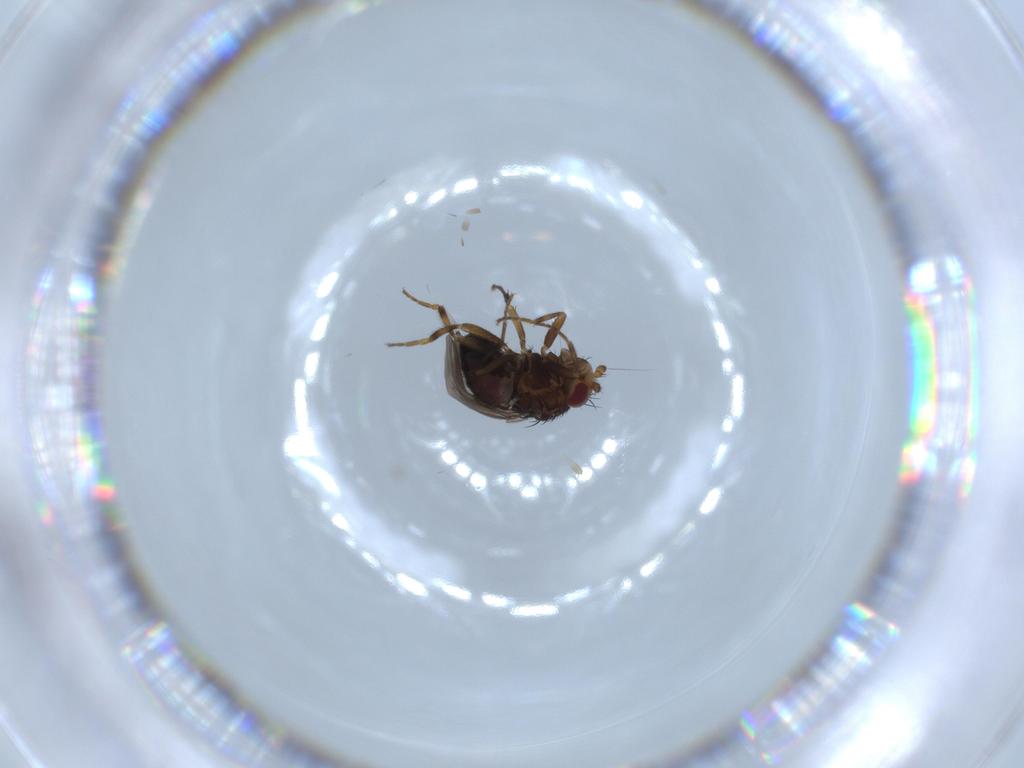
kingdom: Animalia
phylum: Arthropoda
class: Insecta
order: Diptera
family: Sphaeroceridae
